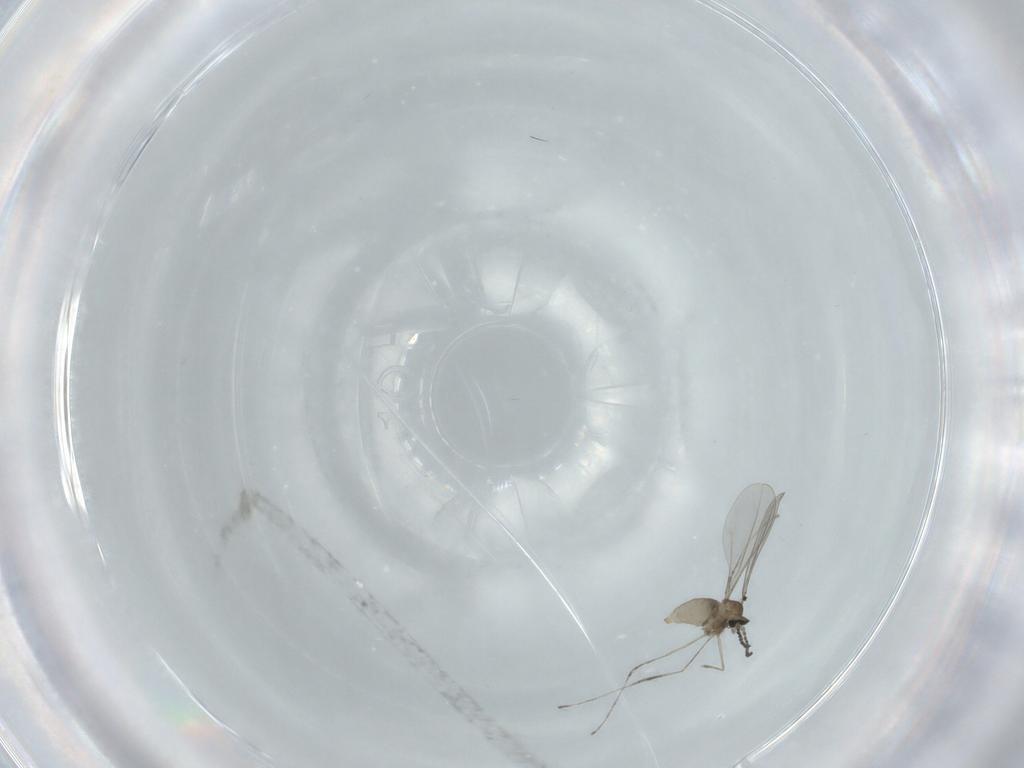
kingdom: Animalia
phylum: Arthropoda
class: Insecta
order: Diptera
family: Cecidomyiidae
